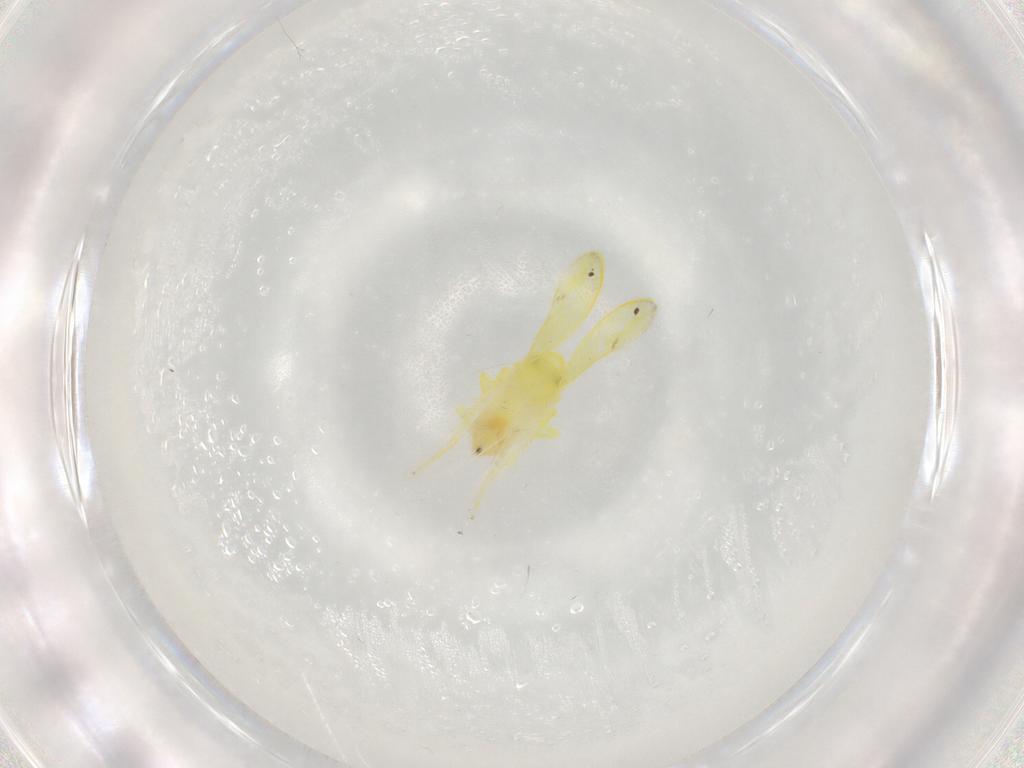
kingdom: Animalia
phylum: Arthropoda
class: Insecta
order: Hemiptera
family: Cicadellidae
